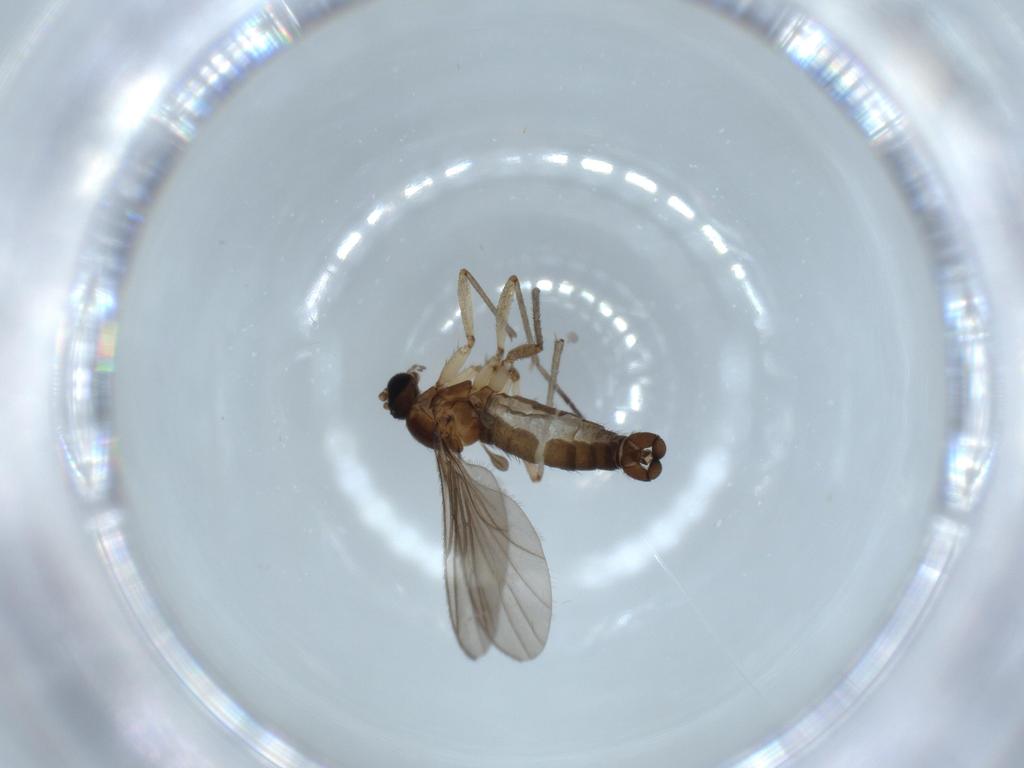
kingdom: Animalia
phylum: Arthropoda
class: Insecta
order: Diptera
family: Sciaridae
